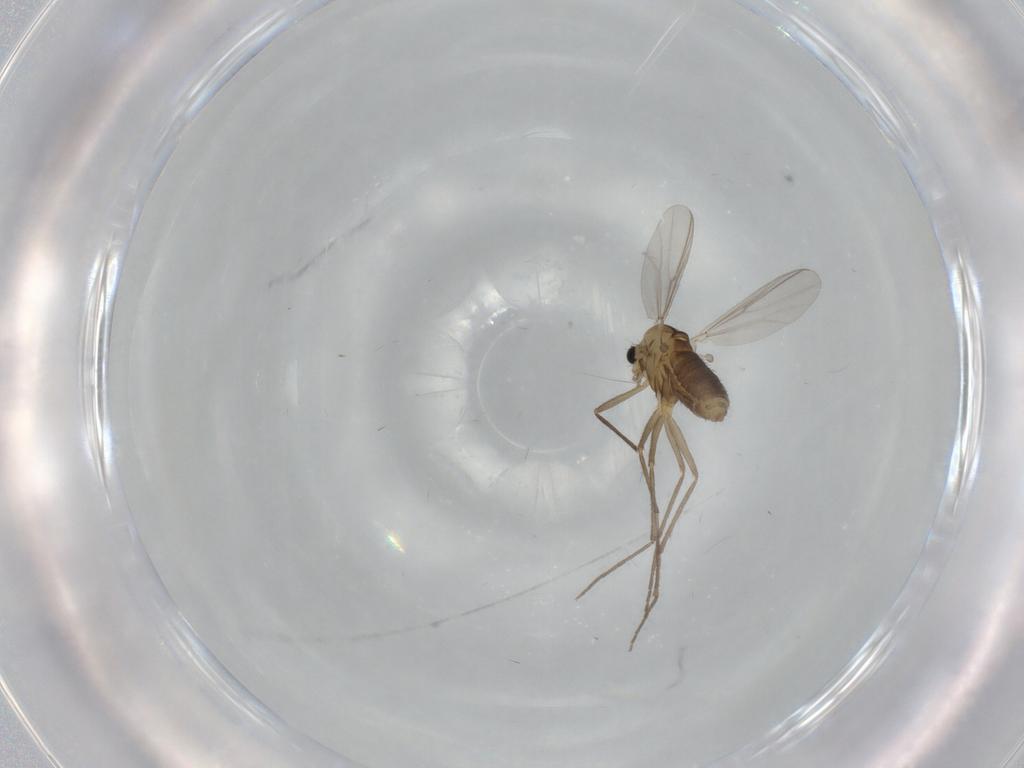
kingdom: Animalia
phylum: Arthropoda
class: Insecta
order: Diptera
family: Chironomidae
